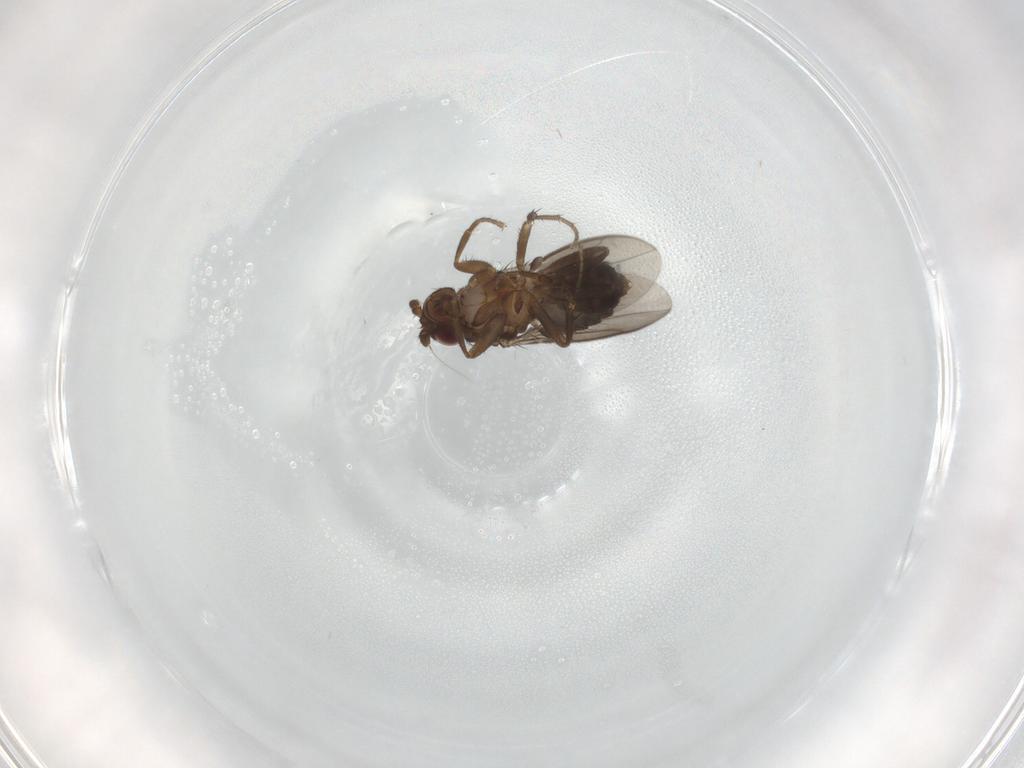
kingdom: Animalia
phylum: Arthropoda
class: Insecta
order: Diptera
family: Sphaeroceridae
